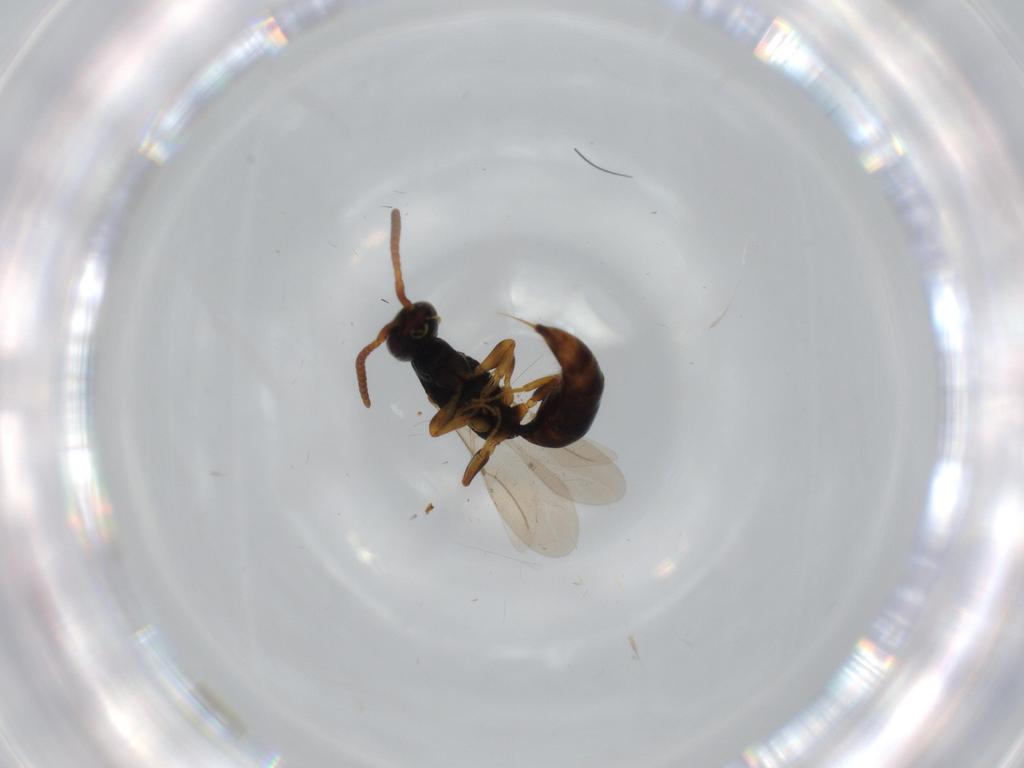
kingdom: Animalia
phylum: Arthropoda
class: Insecta
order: Hymenoptera
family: Bethylidae
